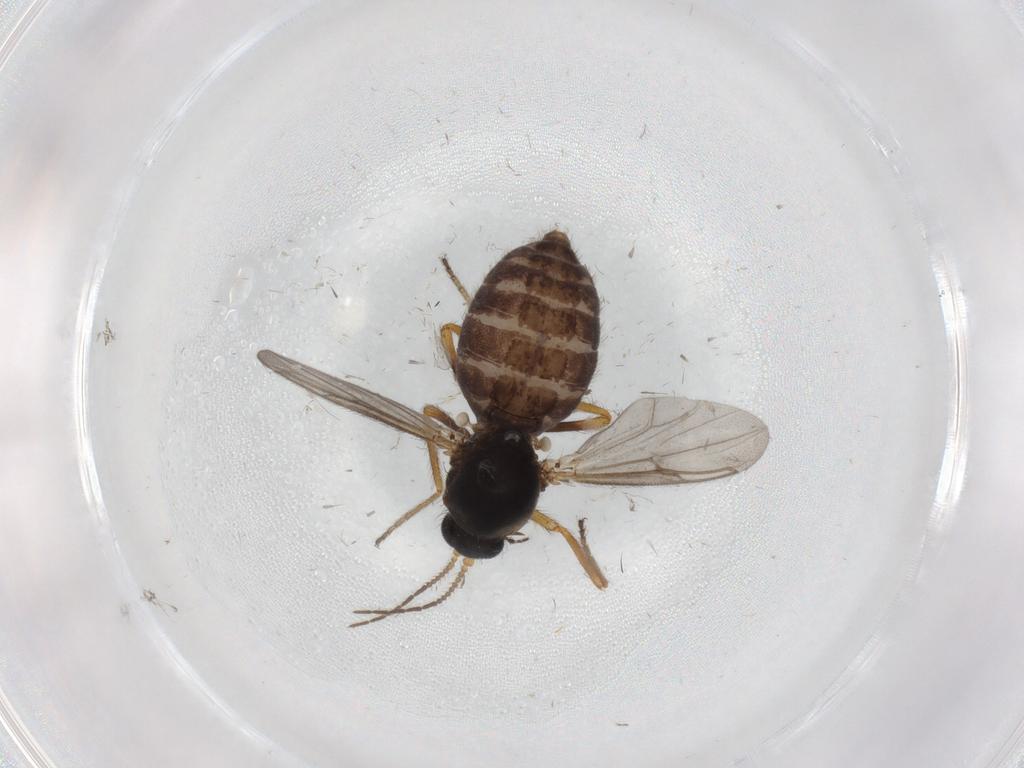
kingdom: Animalia
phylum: Arthropoda
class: Insecta
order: Diptera
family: Ceratopogonidae
